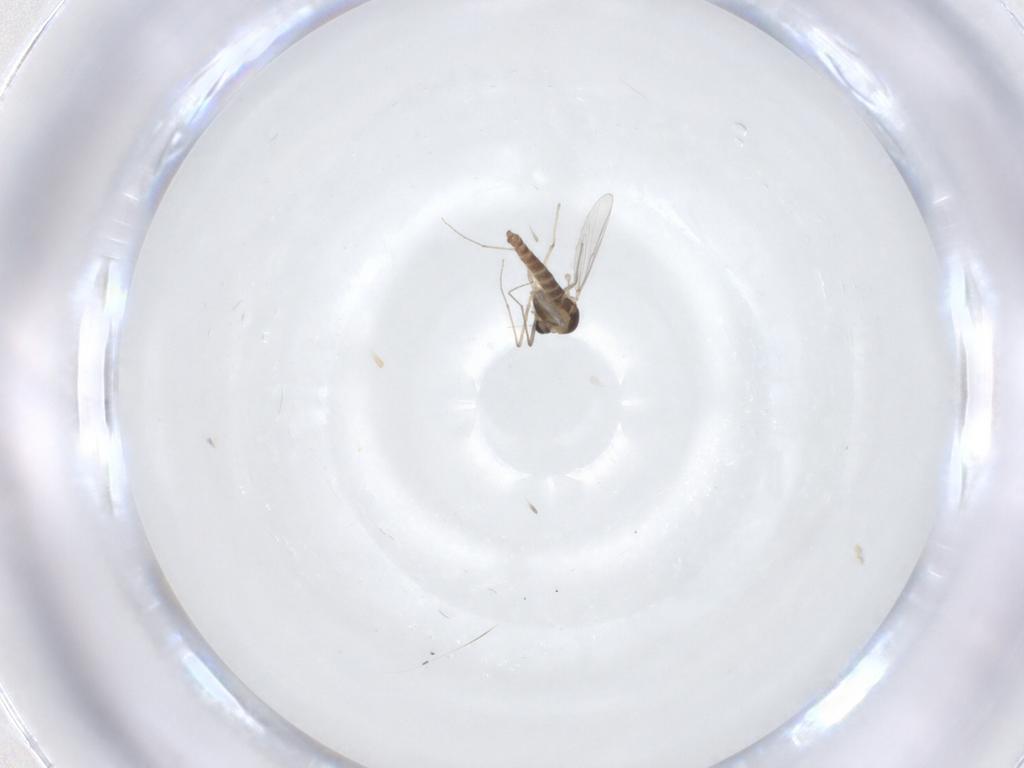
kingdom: Animalia
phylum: Arthropoda
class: Insecta
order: Diptera
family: Chironomidae
